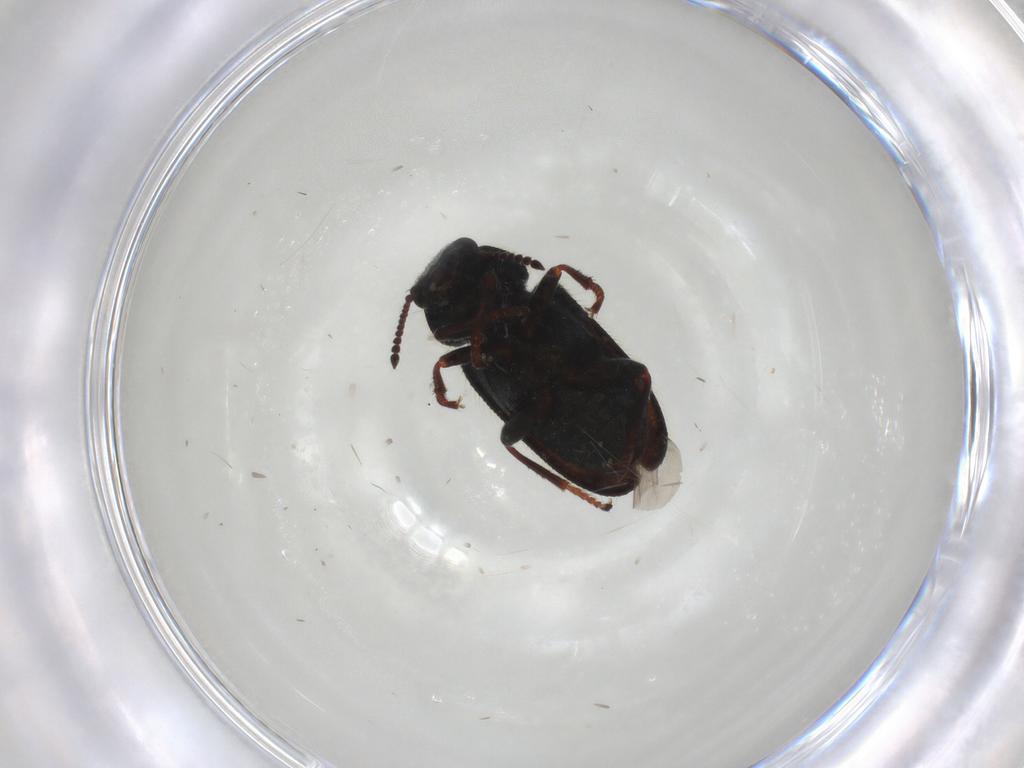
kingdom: Animalia
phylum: Arthropoda
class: Insecta
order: Coleoptera
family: Melyridae
